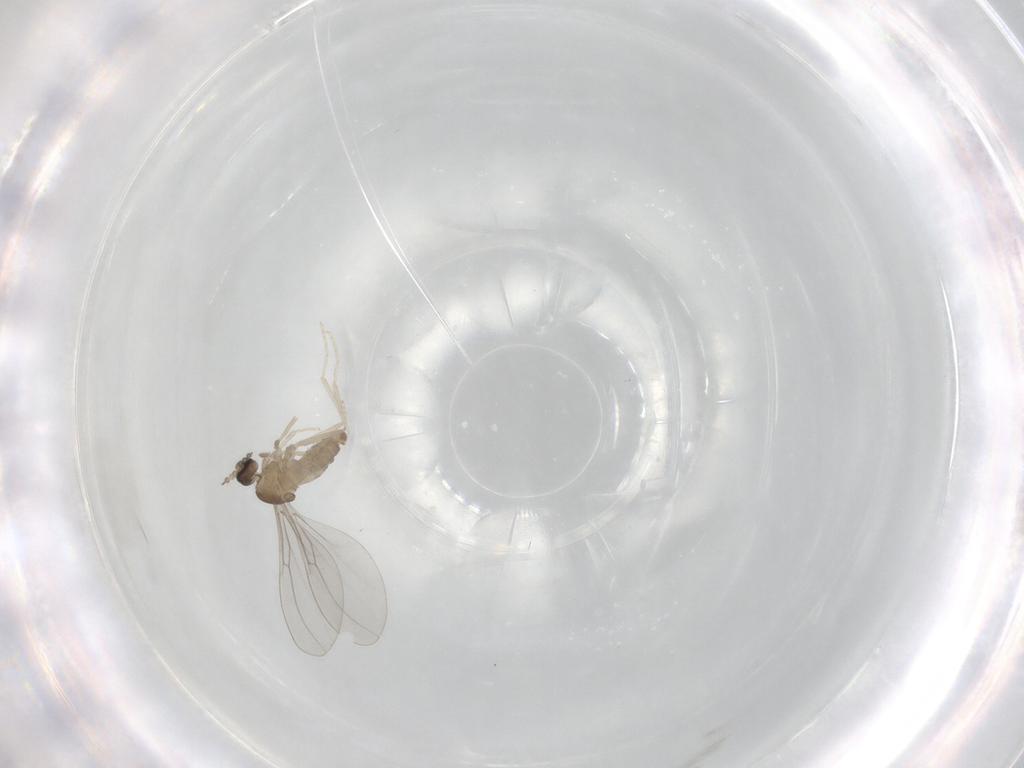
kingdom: Animalia
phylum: Arthropoda
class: Insecta
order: Diptera
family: Cecidomyiidae
